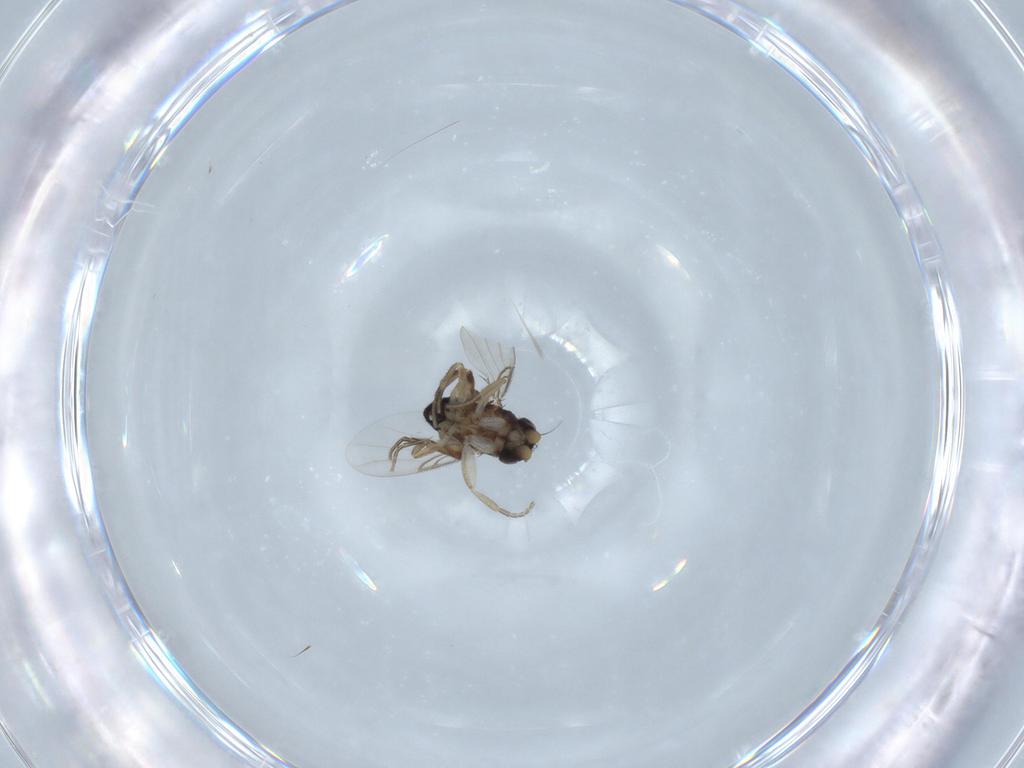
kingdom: Animalia
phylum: Arthropoda
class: Insecta
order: Diptera
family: Phoridae
